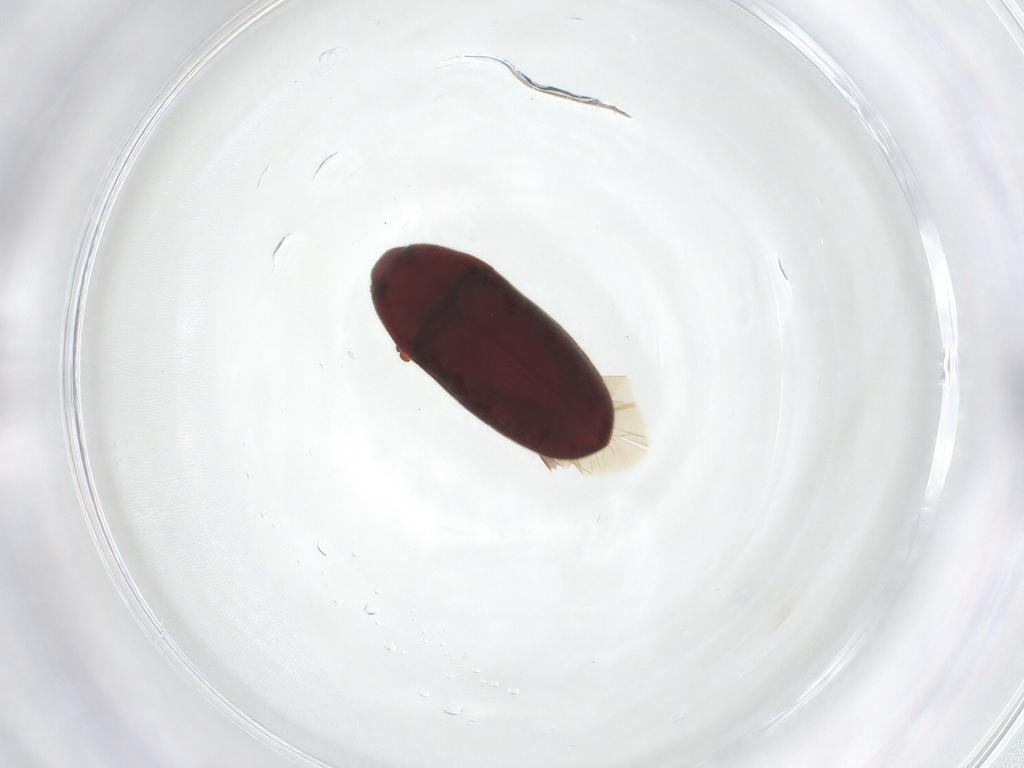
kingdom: Animalia
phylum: Arthropoda
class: Insecta
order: Coleoptera
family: Throscidae
